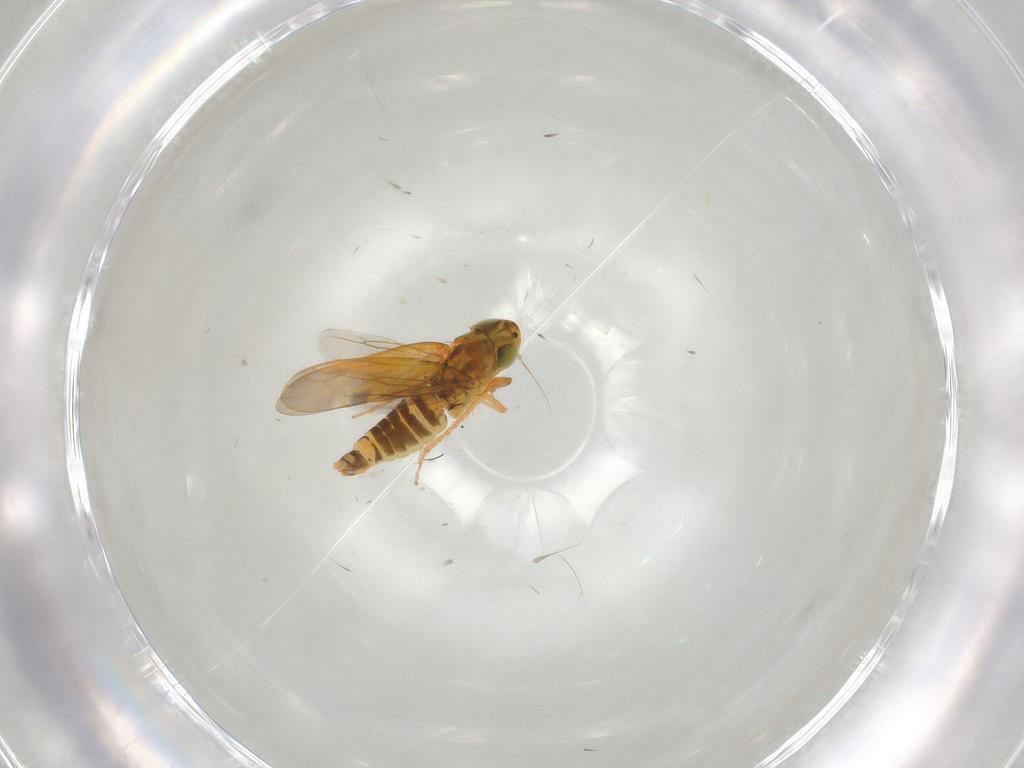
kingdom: Animalia
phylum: Arthropoda
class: Insecta
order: Hemiptera
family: Cicadellidae
